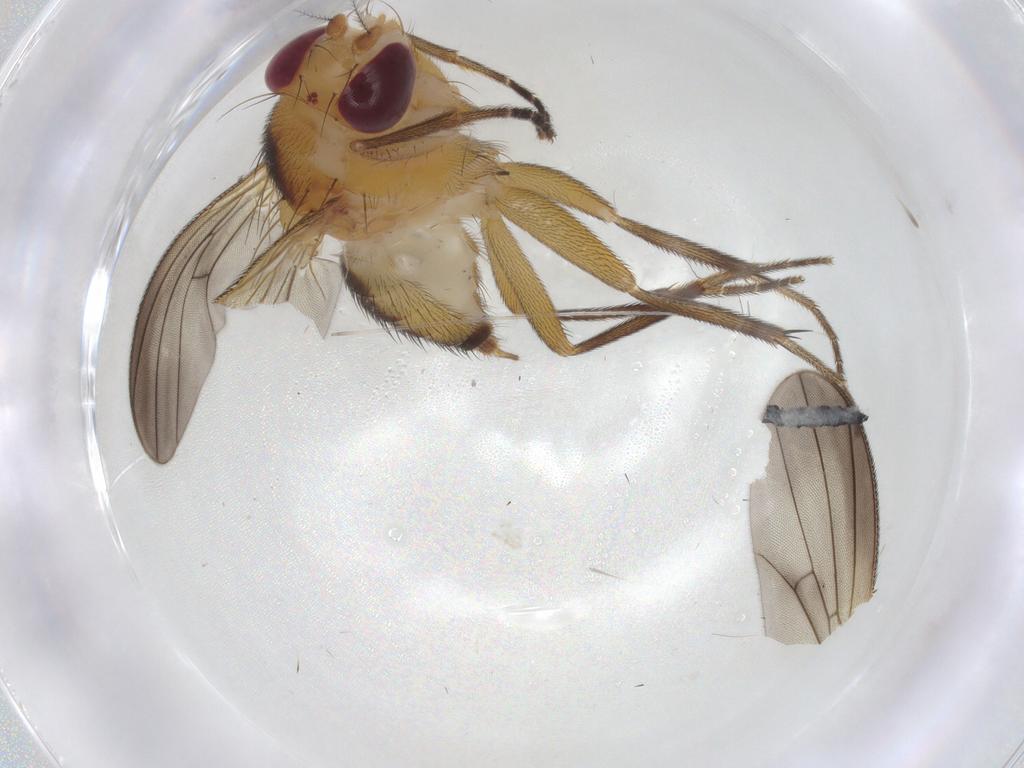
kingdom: Animalia
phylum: Arthropoda
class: Insecta
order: Diptera
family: Clusiidae
